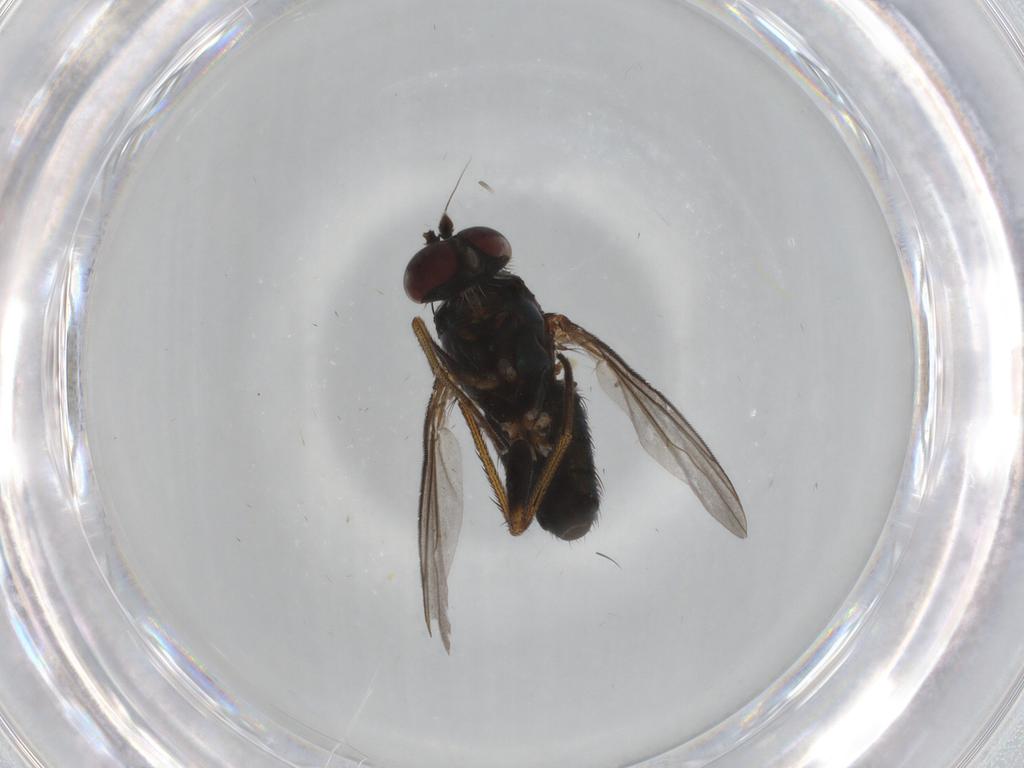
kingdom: Animalia
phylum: Arthropoda
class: Insecta
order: Diptera
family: Dolichopodidae
